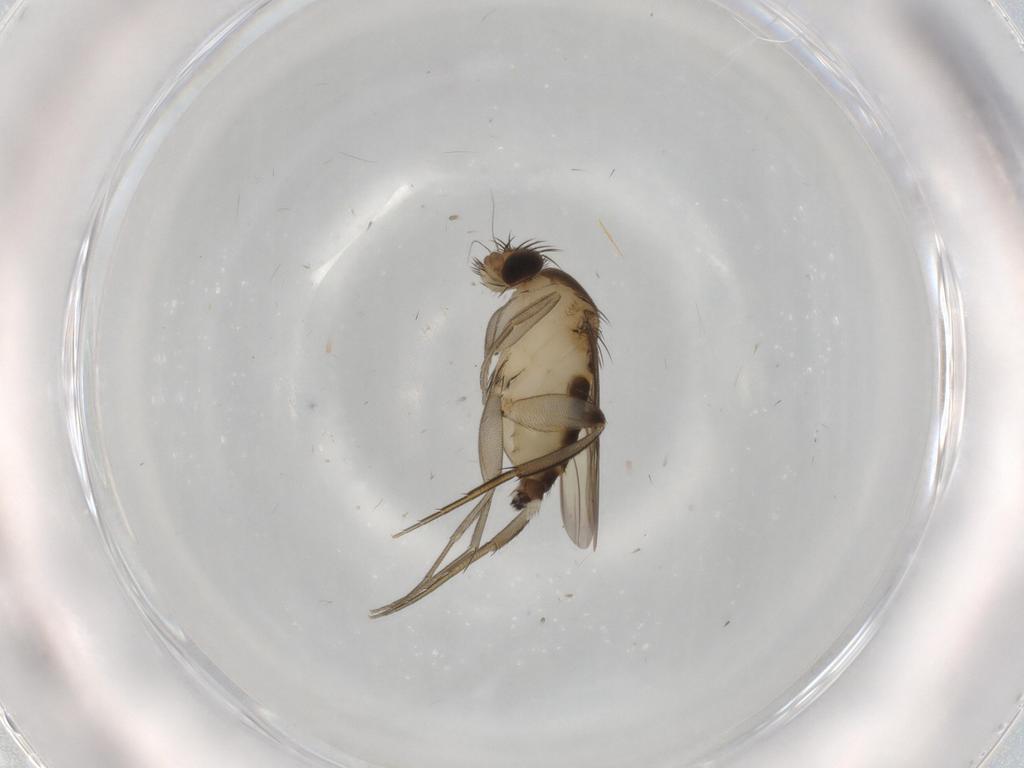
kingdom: Animalia
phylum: Arthropoda
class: Insecta
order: Diptera
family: Phoridae
